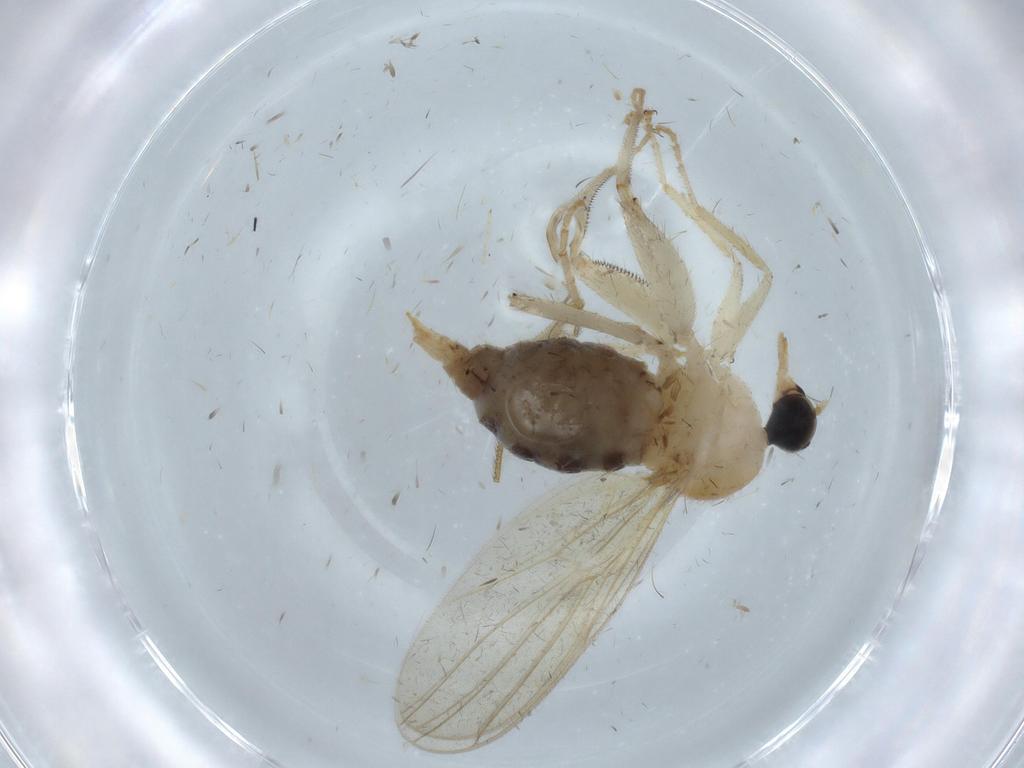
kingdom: Animalia
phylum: Arthropoda
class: Insecta
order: Diptera
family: Hybotidae
